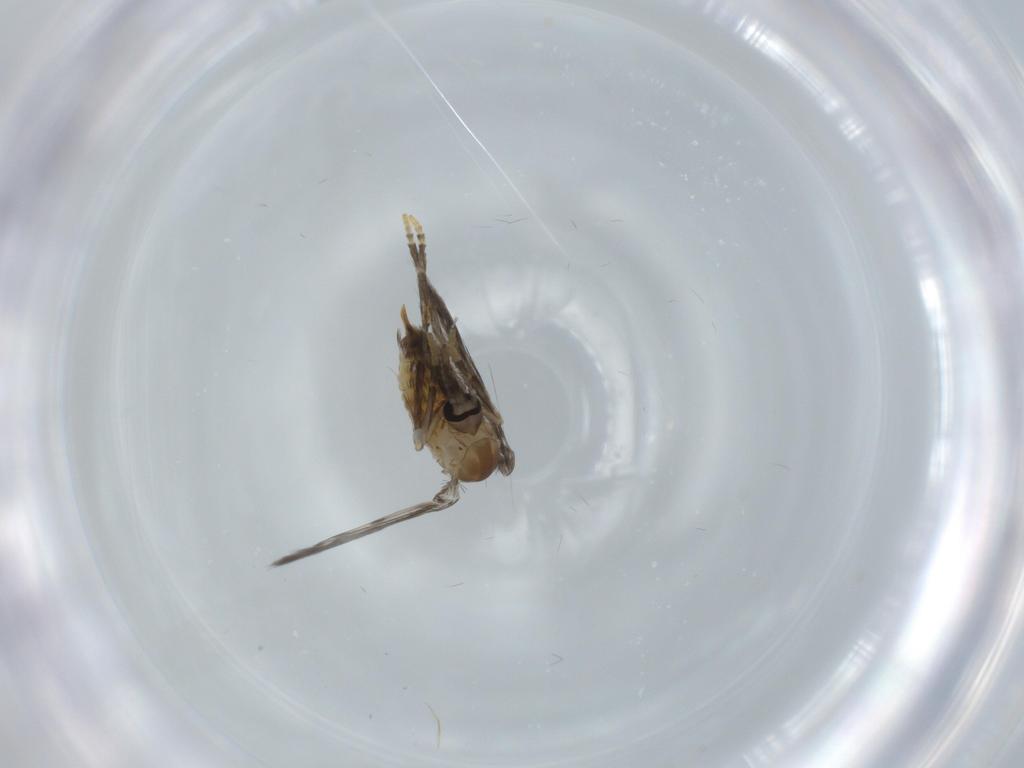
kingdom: Animalia
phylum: Arthropoda
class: Insecta
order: Diptera
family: Psychodidae
